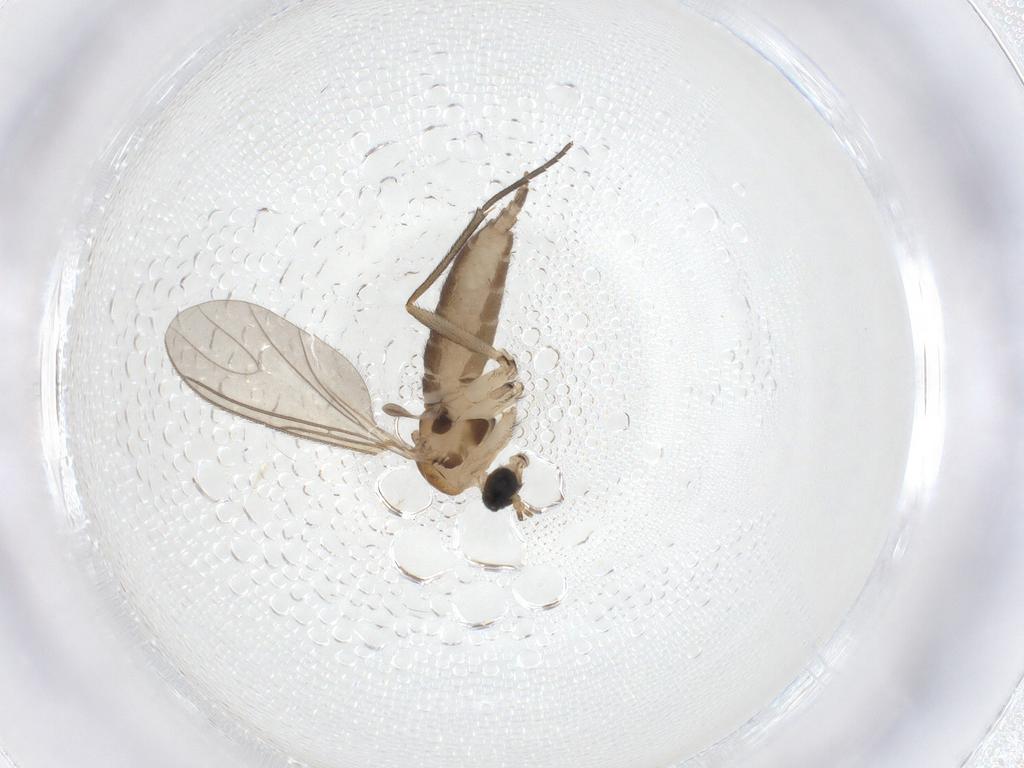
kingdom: Animalia
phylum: Arthropoda
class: Insecta
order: Diptera
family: Sciaridae
